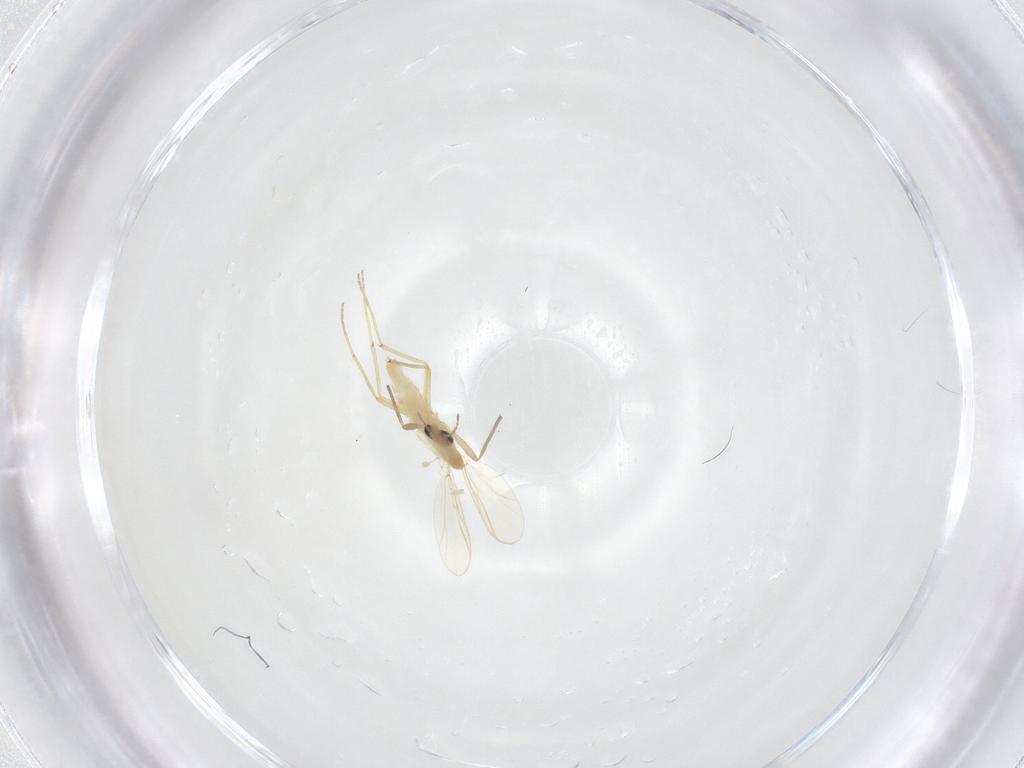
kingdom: Animalia
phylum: Arthropoda
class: Insecta
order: Diptera
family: Chironomidae
